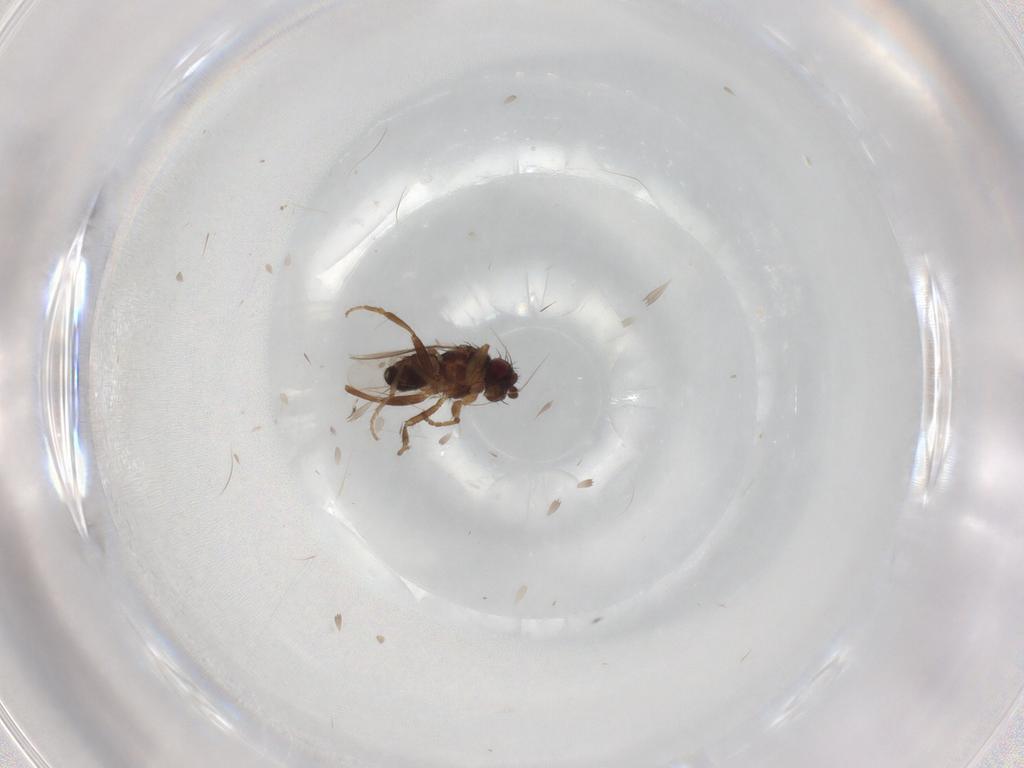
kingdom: Animalia
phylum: Arthropoda
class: Insecta
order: Diptera
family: Sphaeroceridae
